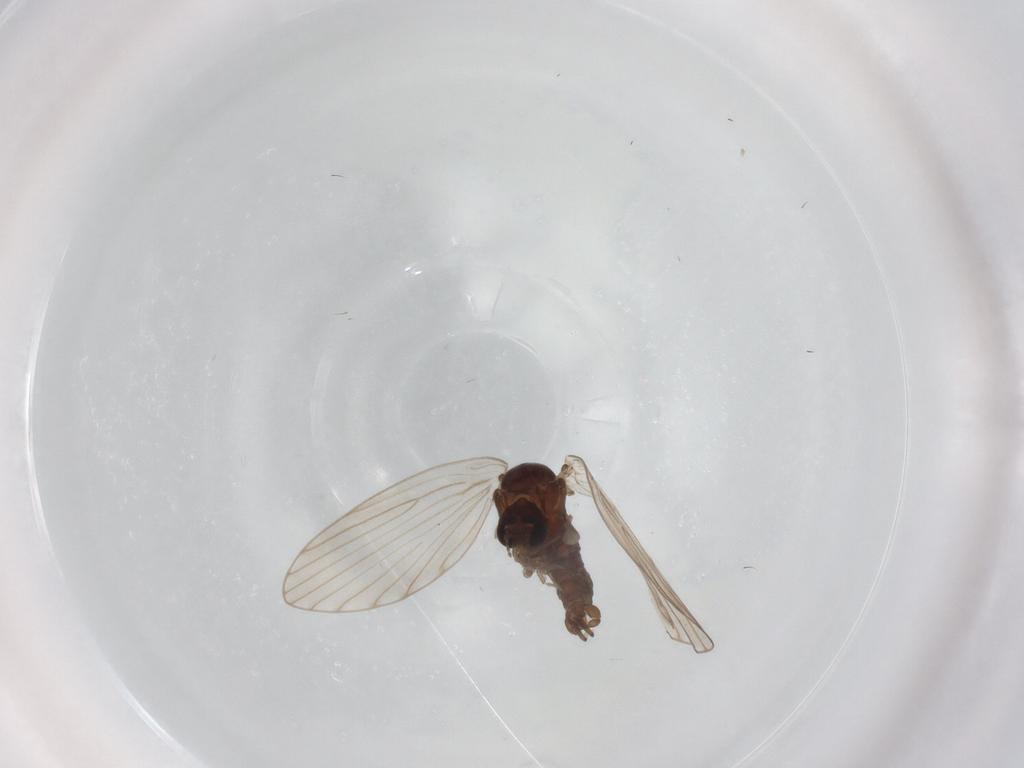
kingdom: Animalia
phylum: Arthropoda
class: Insecta
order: Diptera
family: Psychodidae
